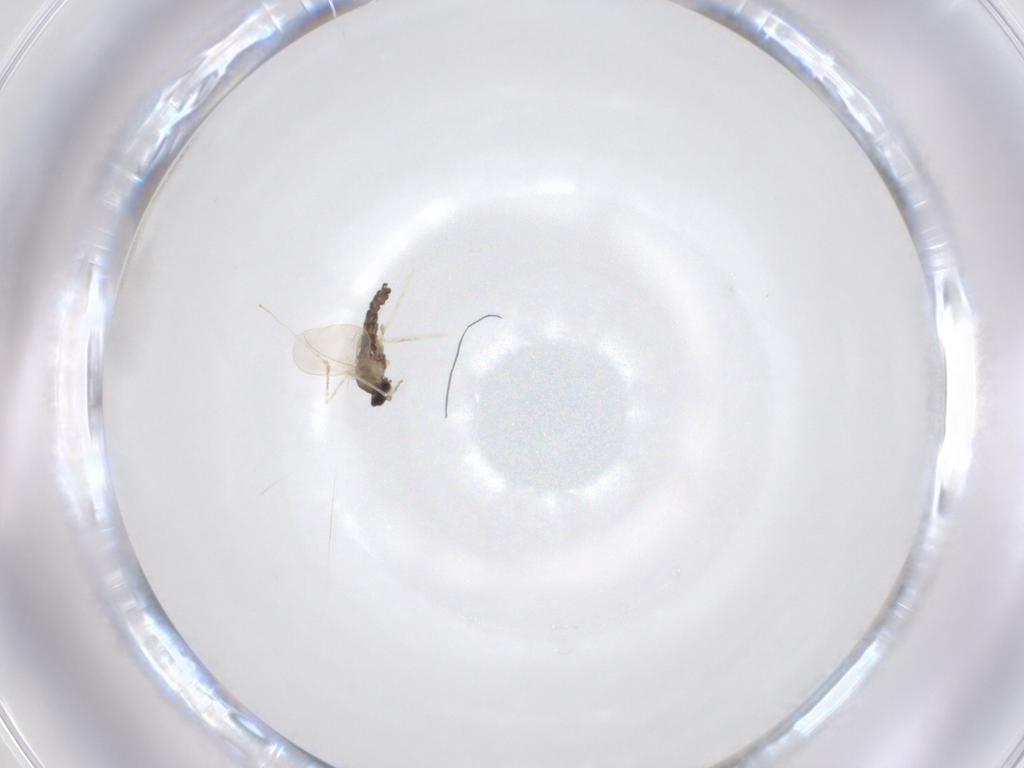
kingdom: Animalia
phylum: Arthropoda
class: Insecta
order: Diptera
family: Cecidomyiidae
